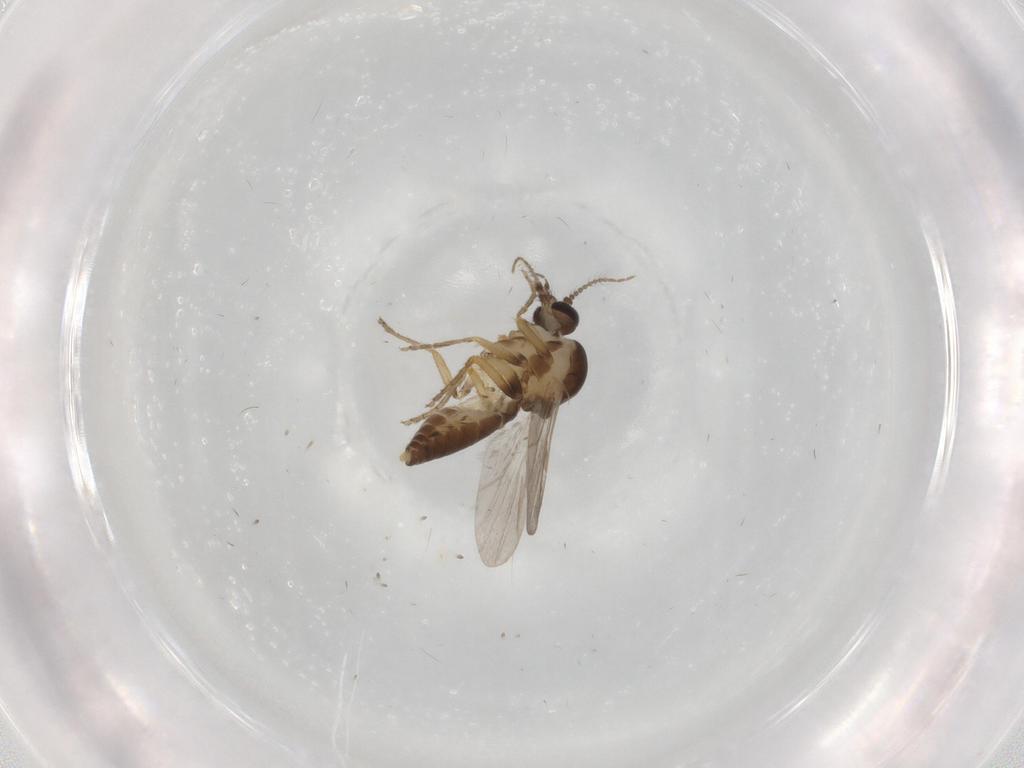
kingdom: Animalia
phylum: Arthropoda
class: Insecta
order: Diptera
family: Ceratopogonidae
